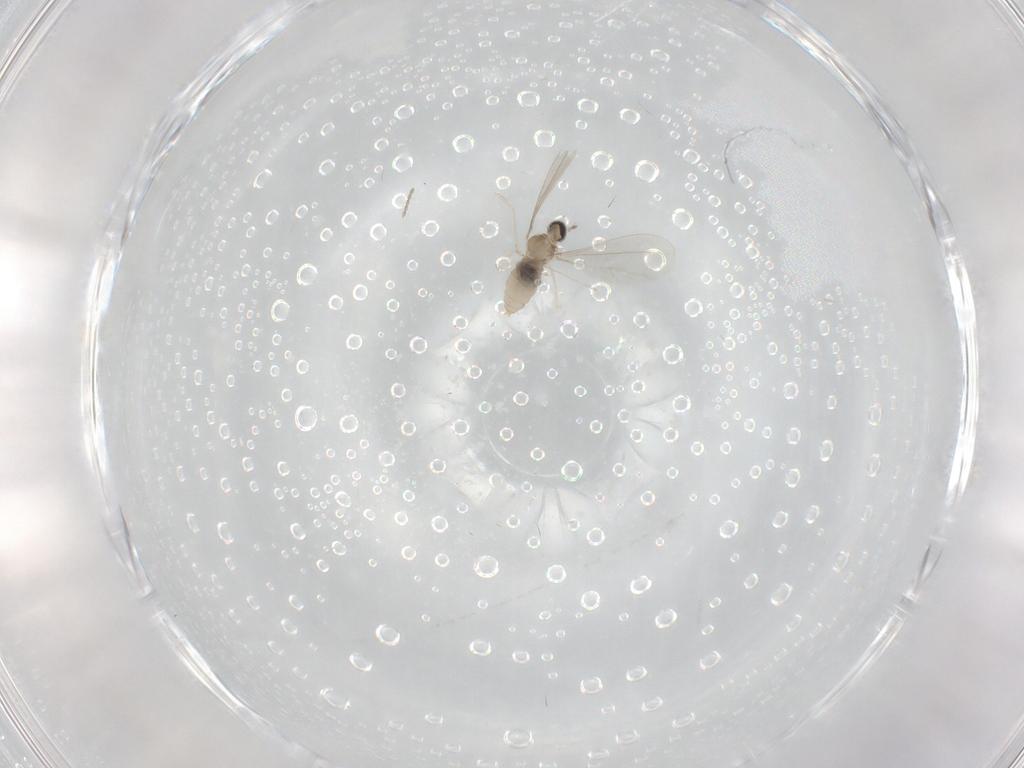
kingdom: Animalia
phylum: Arthropoda
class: Insecta
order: Diptera
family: Cecidomyiidae
